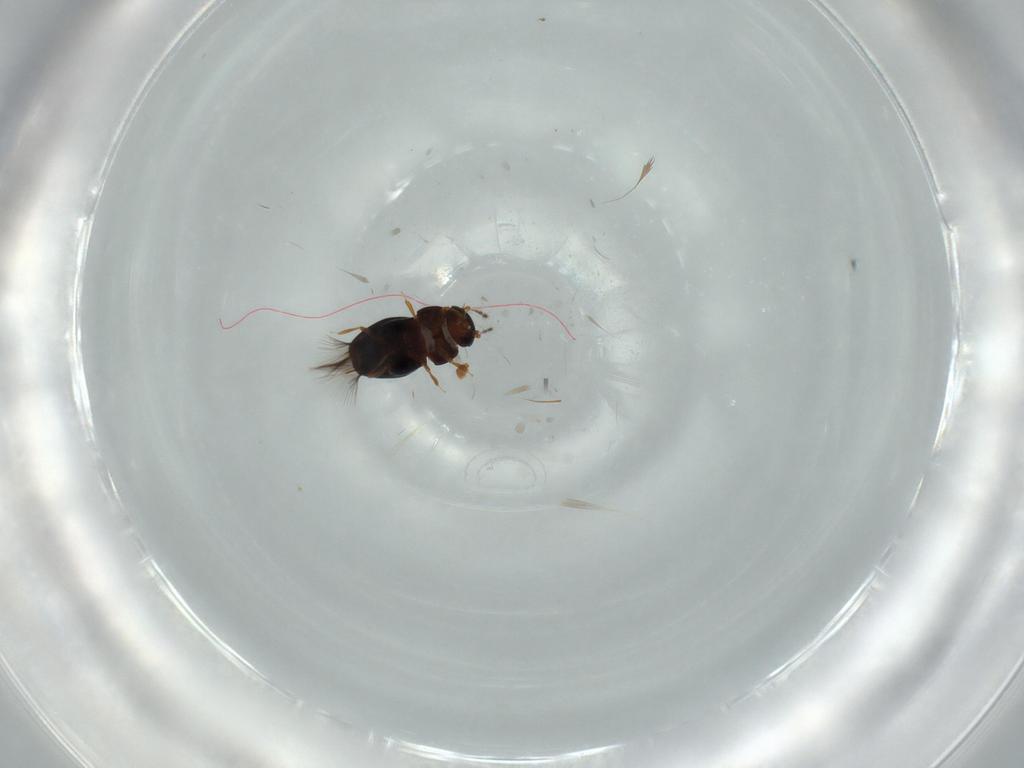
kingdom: Animalia
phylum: Arthropoda
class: Insecta
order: Coleoptera
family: Ptiliidae
